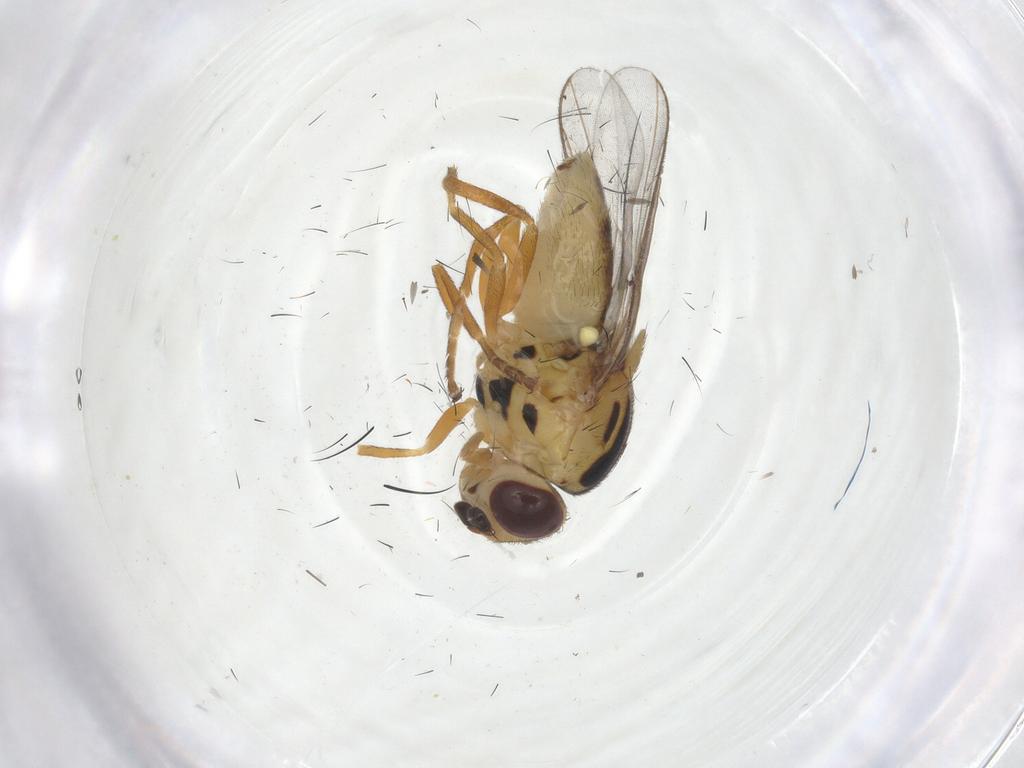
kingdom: Animalia
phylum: Arthropoda
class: Insecta
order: Diptera
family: Chloropidae
